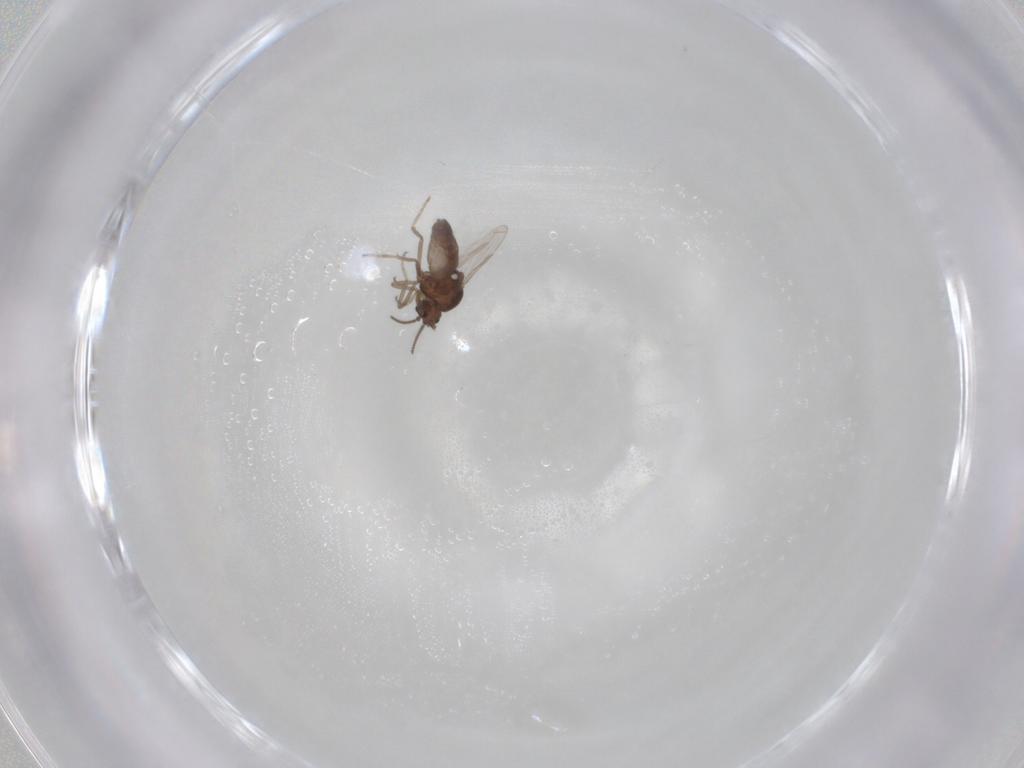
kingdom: Animalia
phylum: Arthropoda
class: Insecta
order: Diptera
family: Ceratopogonidae
